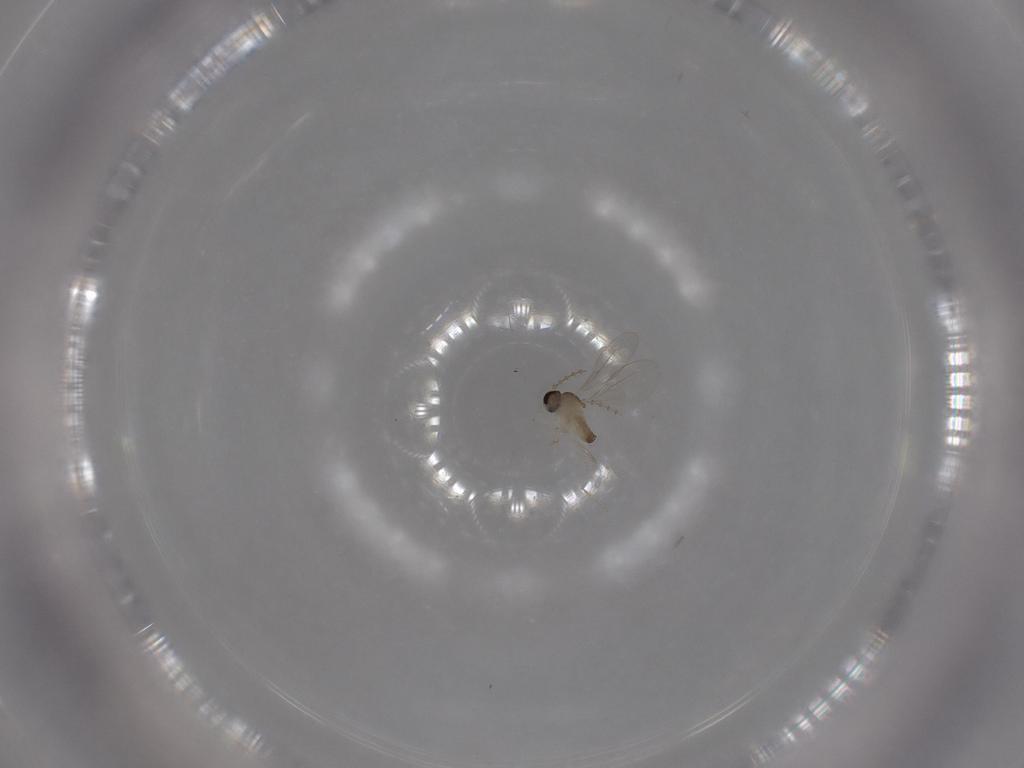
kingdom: Animalia
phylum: Arthropoda
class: Insecta
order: Diptera
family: Cecidomyiidae
